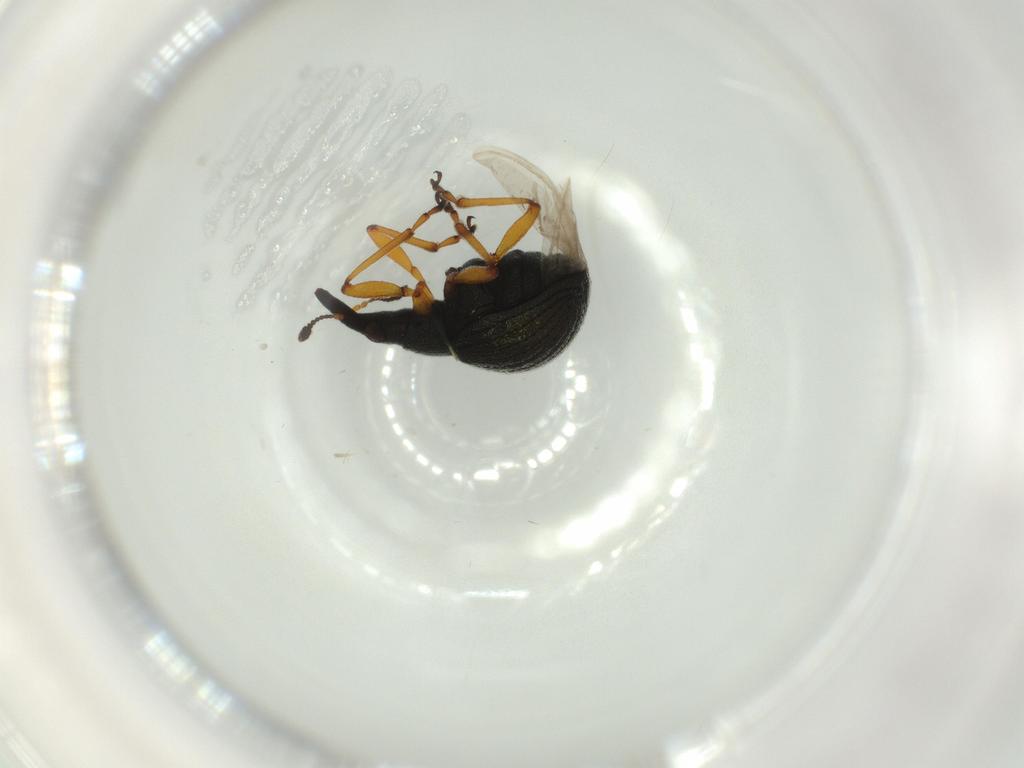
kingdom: Animalia
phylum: Arthropoda
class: Insecta
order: Coleoptera
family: Brentidae
